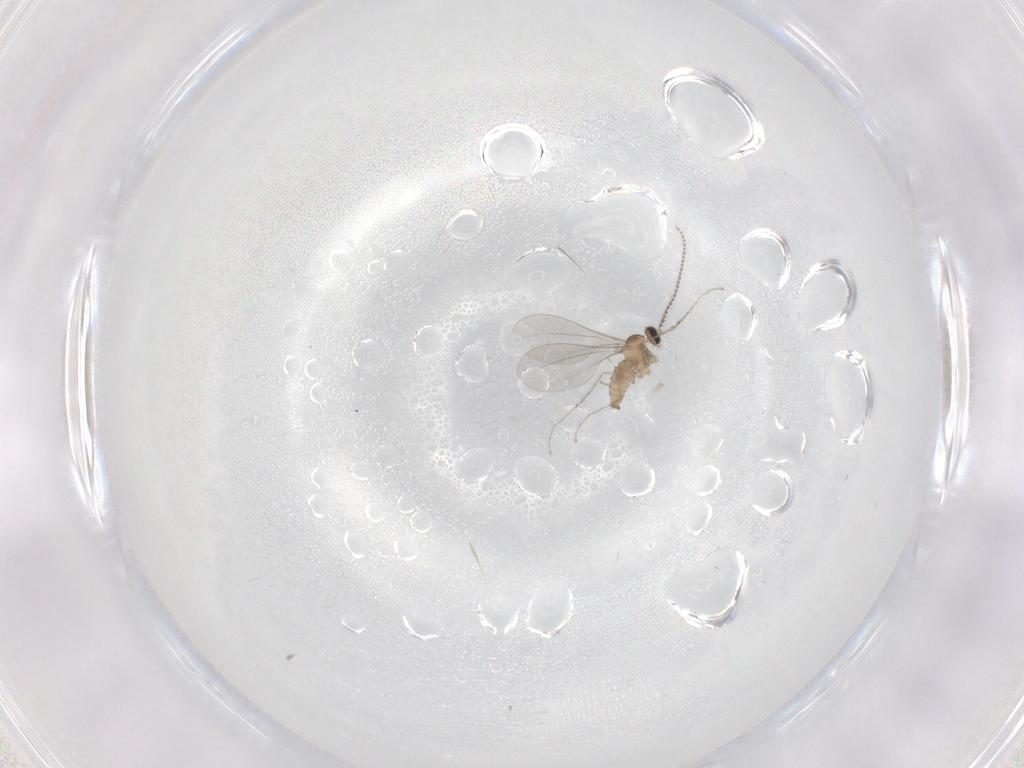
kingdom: Animalia
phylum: Arthropoda
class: Insecta
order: Diptera
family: Cecidomyiidae
